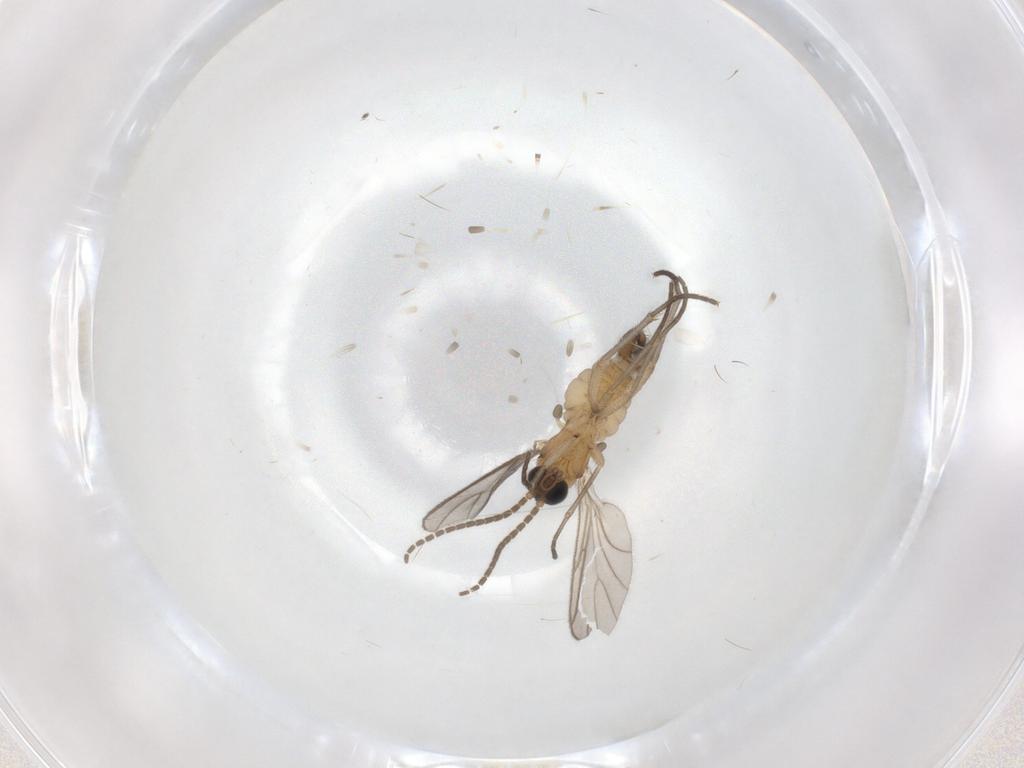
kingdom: Animalia
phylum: Arthropoda
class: Insecta
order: Diptera
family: Sciaridae
